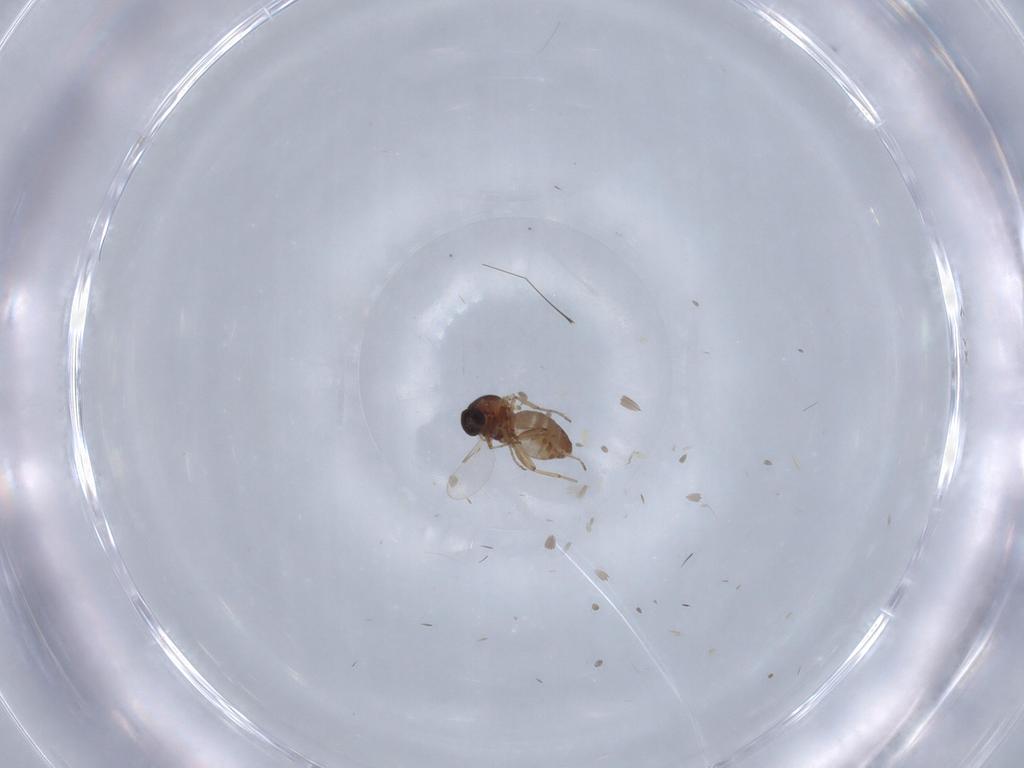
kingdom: Animalia
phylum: Arthropoda
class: Insecta
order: Diptera
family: Ceratopogonidae
